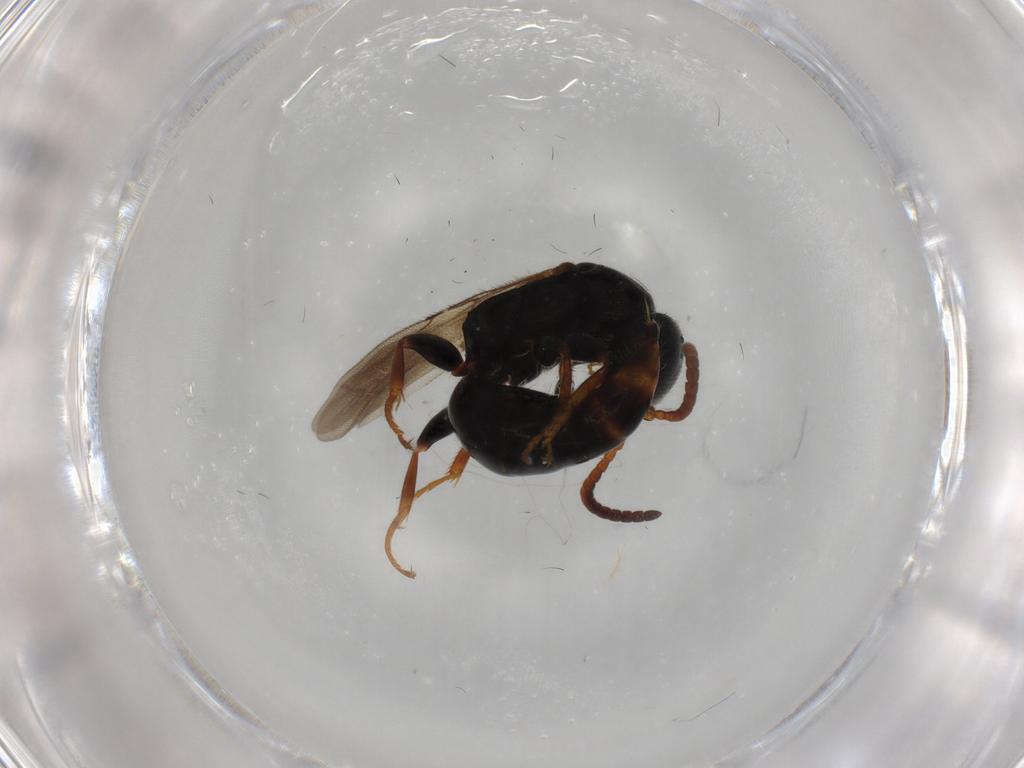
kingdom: Animalia
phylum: Arthropoda
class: Insecta
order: Hymenoptera
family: Bethylidae
